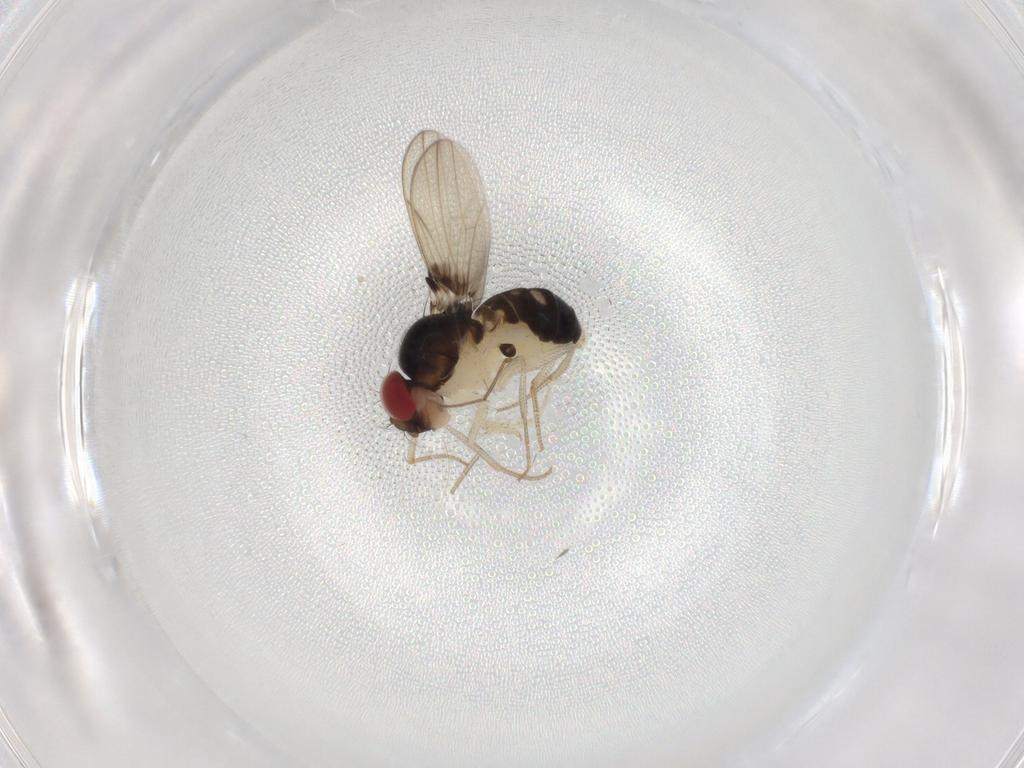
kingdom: Animalia
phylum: Arthropoda
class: Insecta
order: Diptera
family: Drosophilidae
